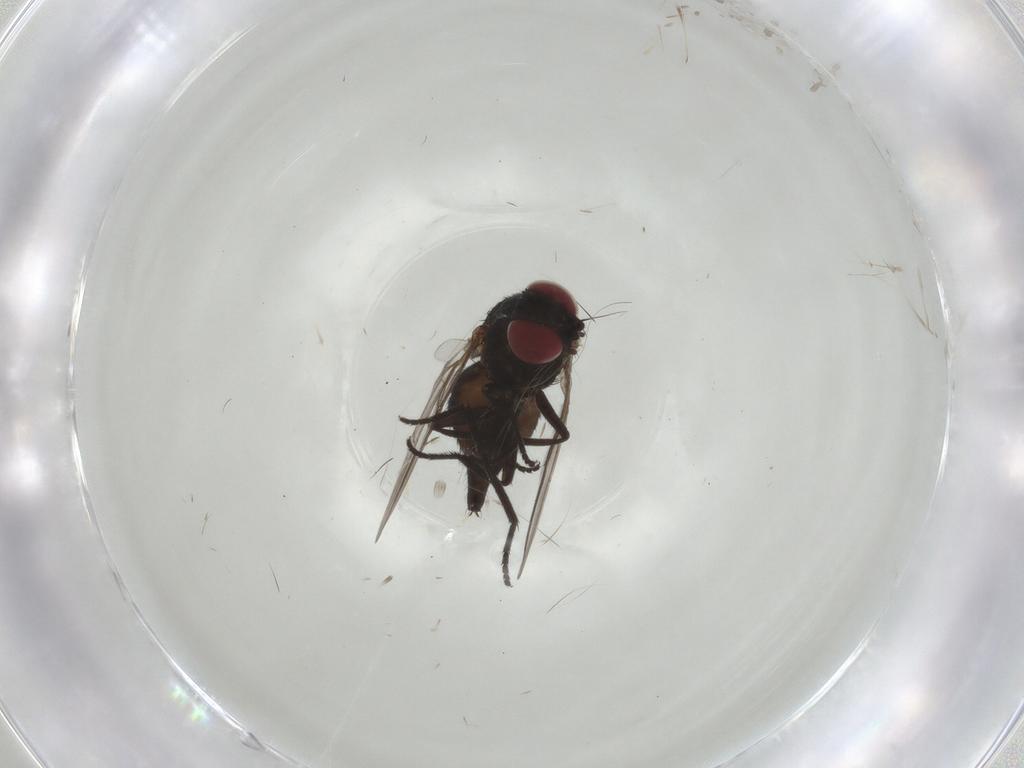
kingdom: Animalia
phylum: Arthropoda
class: Insecta
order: Diptera
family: Agromyzidae
